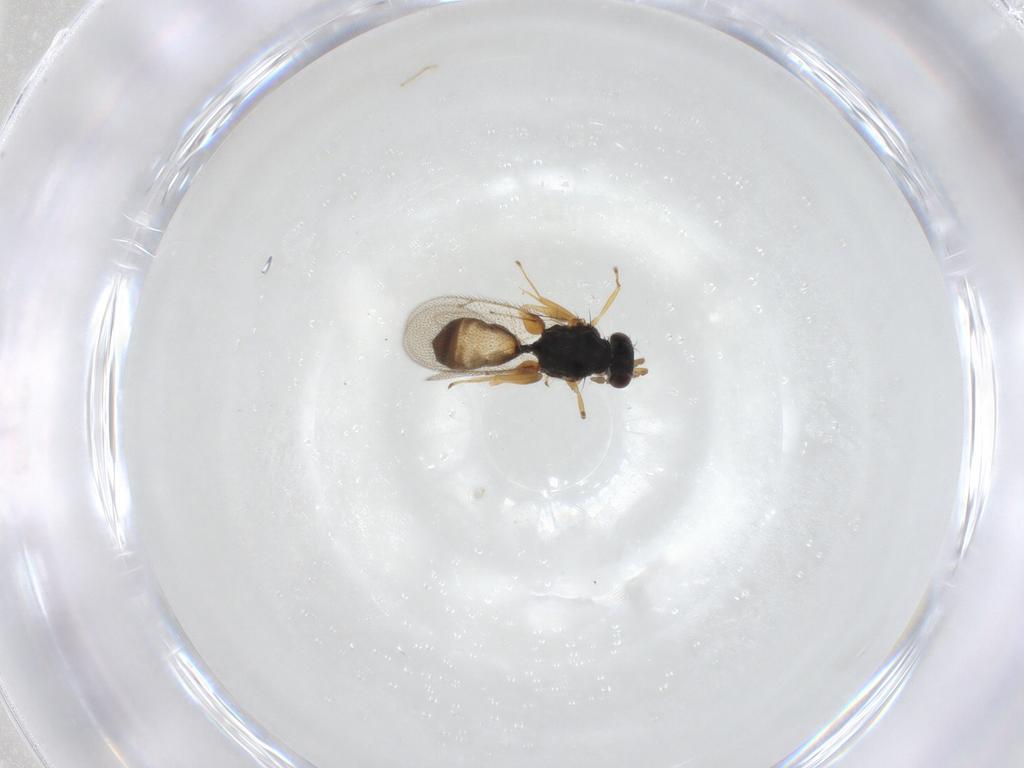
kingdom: Animalia
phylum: Arthropoda
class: Insecta
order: Hymenoptera
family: Eulophidae
